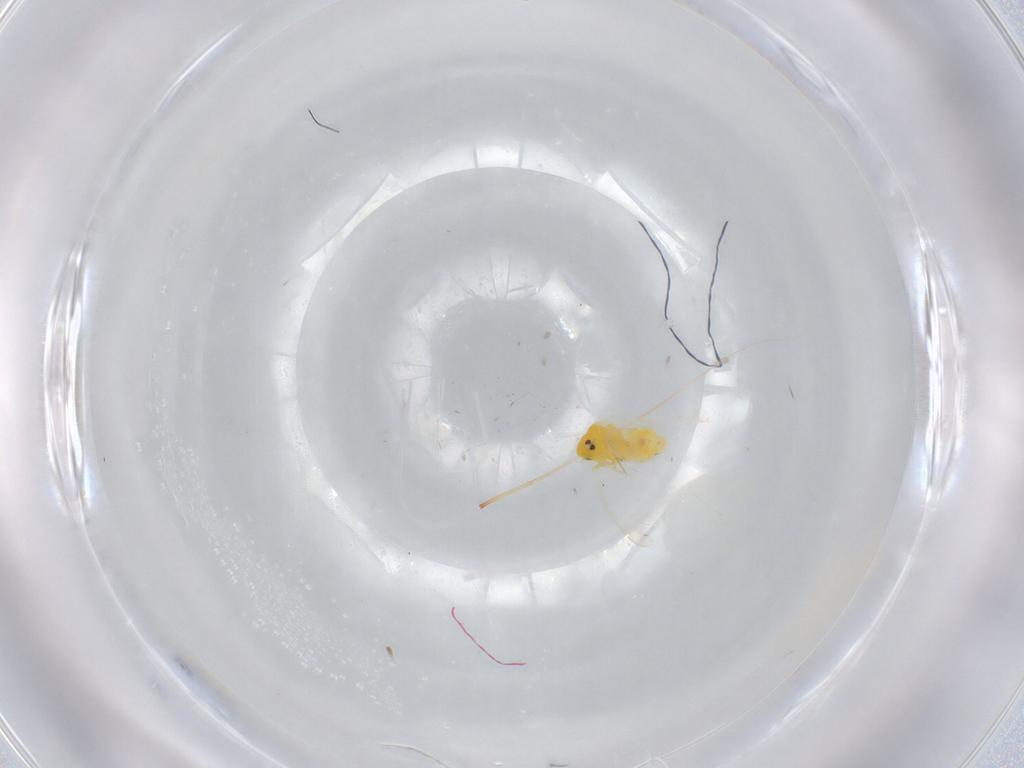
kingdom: Animalia
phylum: Arthropoda
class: Insecta
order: Hemiptera
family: Aleyrodidae
